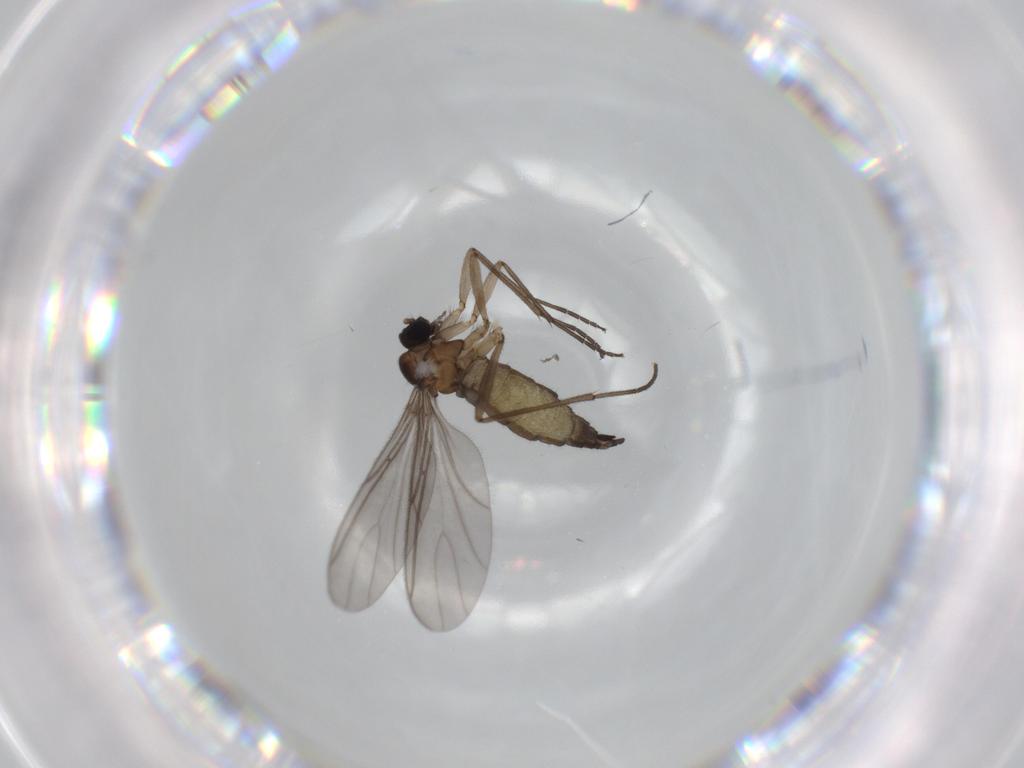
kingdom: Animalia
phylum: Arthropoda
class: Insecta
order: Diptera
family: Sciaridae
